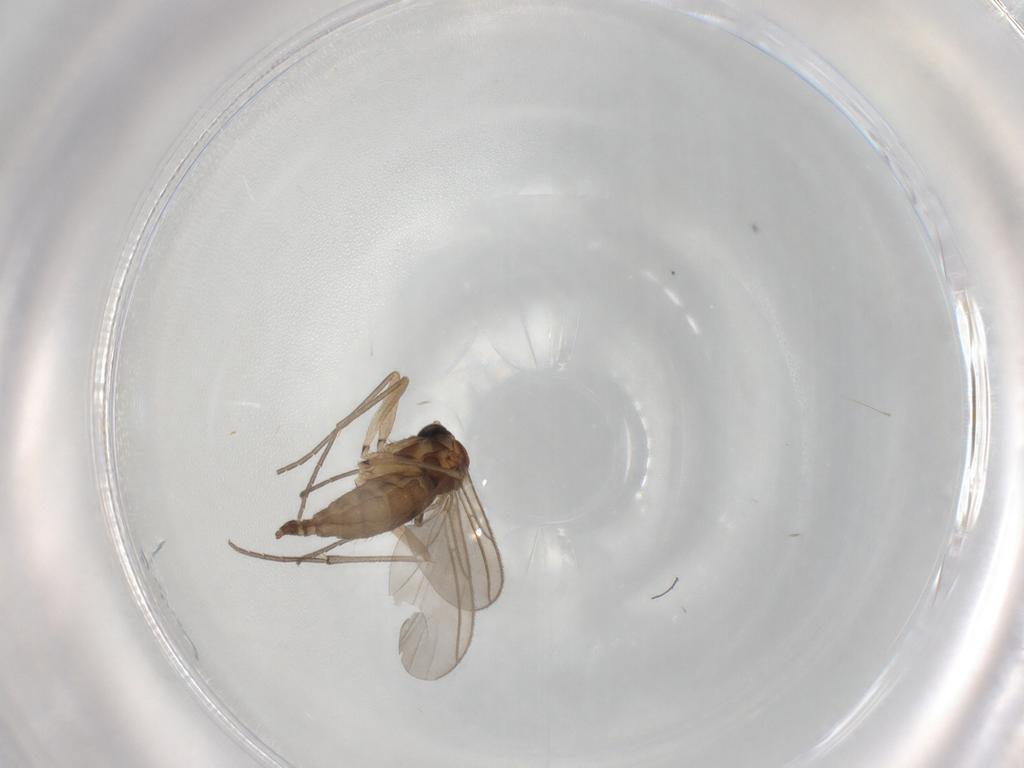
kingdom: Animalia
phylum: Arthropoda
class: Insecta
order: Diptera
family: Sciaridae
